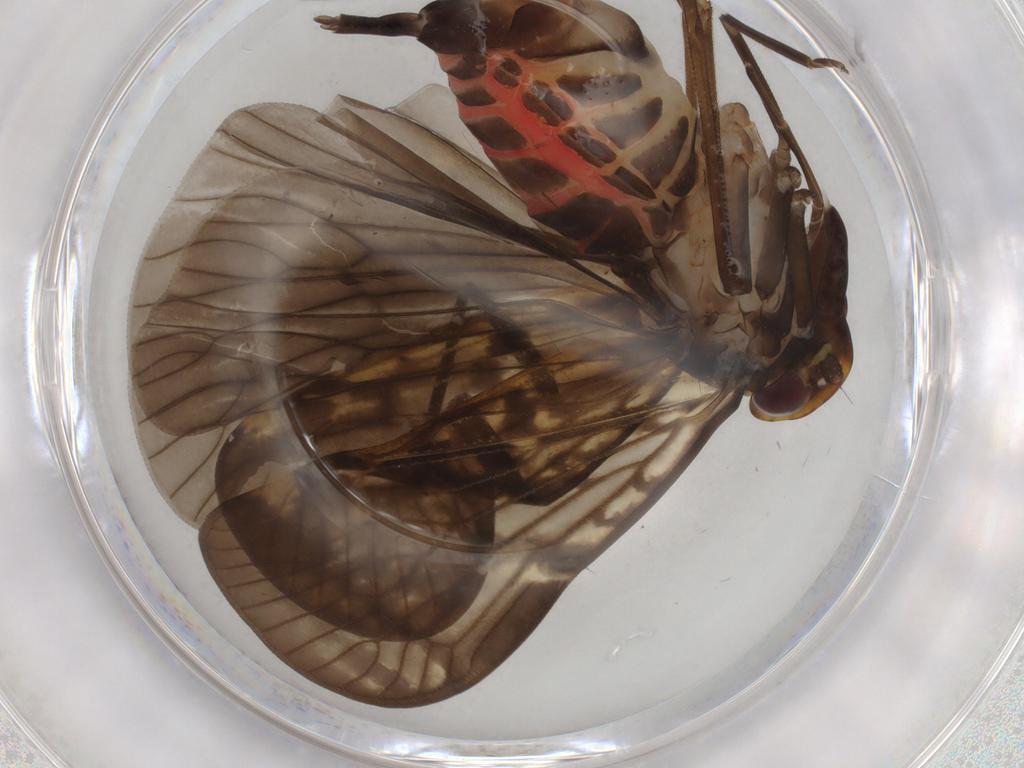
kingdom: Animalia
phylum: Arthropoda
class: Insecta
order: Hemiptera
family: Cixiidae
